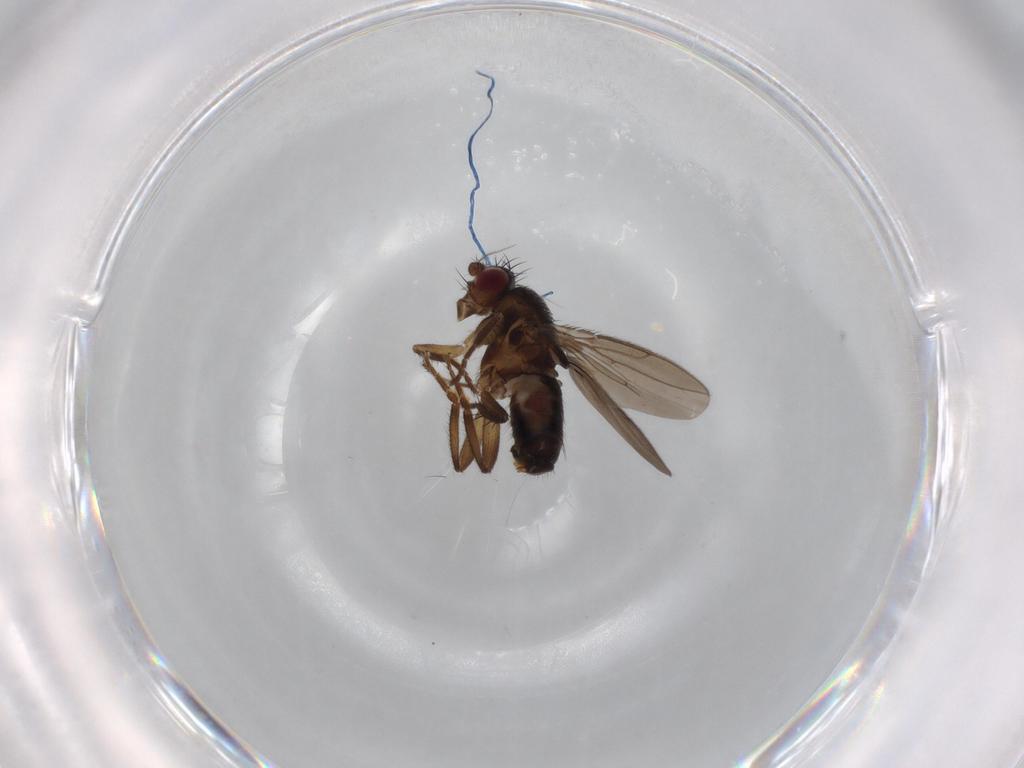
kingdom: Animalia
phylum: Arthropoda
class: Insecta
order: Diptera
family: Sphaeroceridae
